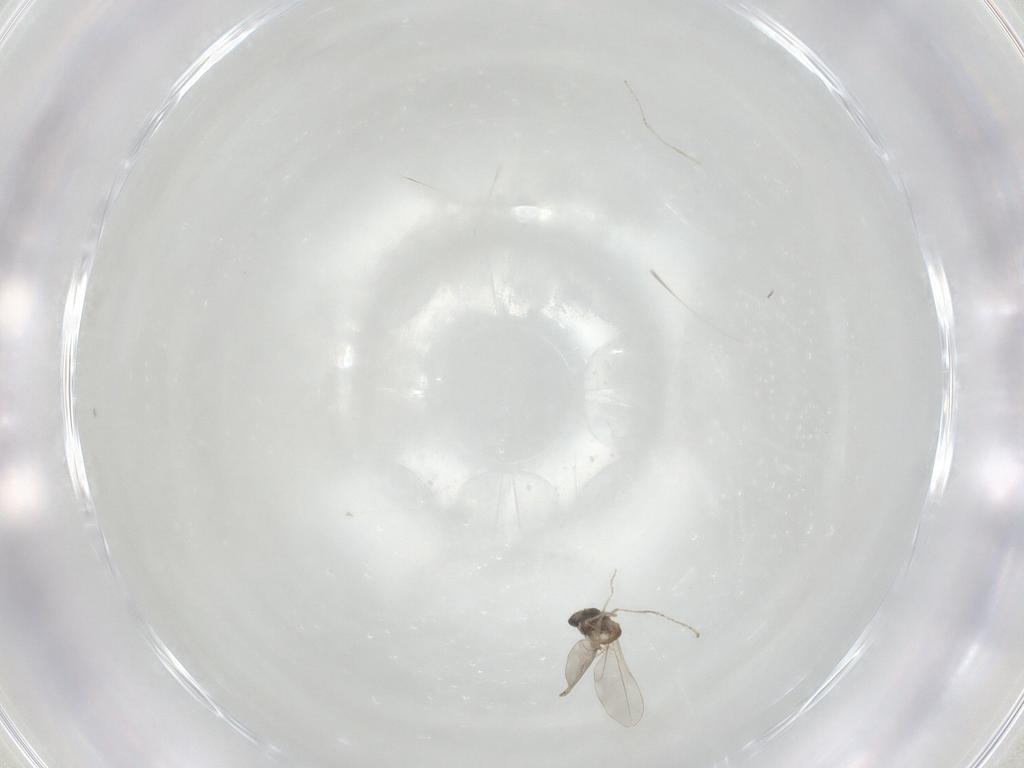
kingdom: Animalia
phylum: Arthropoda
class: Insecta
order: Diptera
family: Cecidomyiidae
